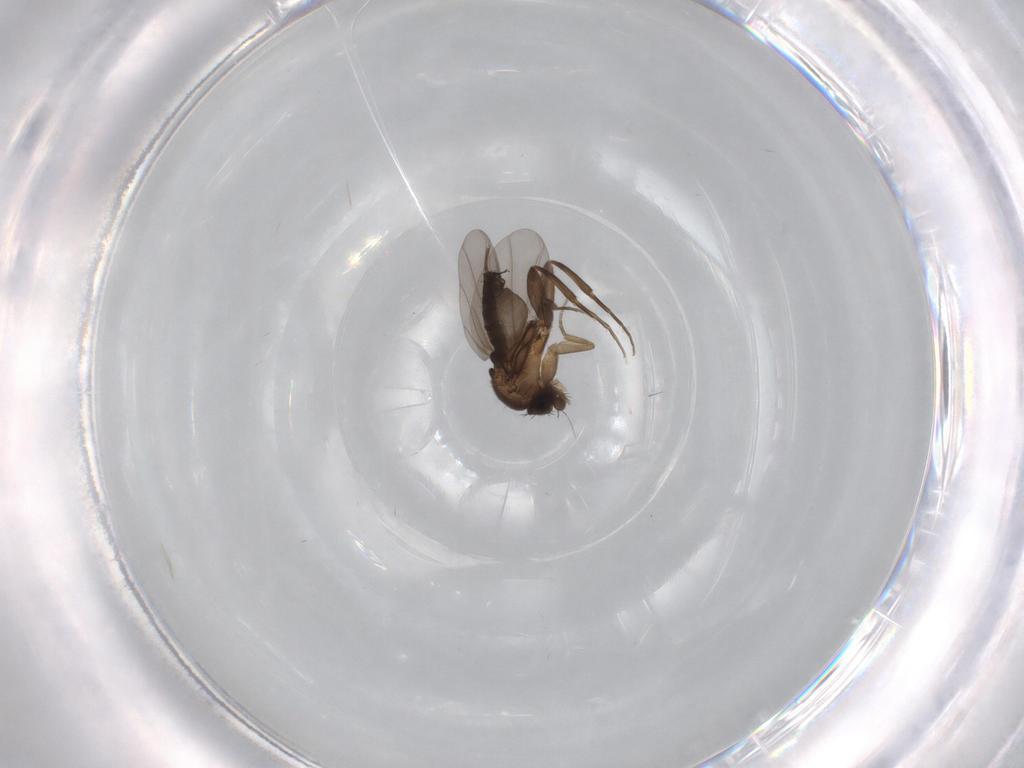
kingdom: Animalia
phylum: Arthropoda
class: Insecta
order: Diptera
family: Phoridae
